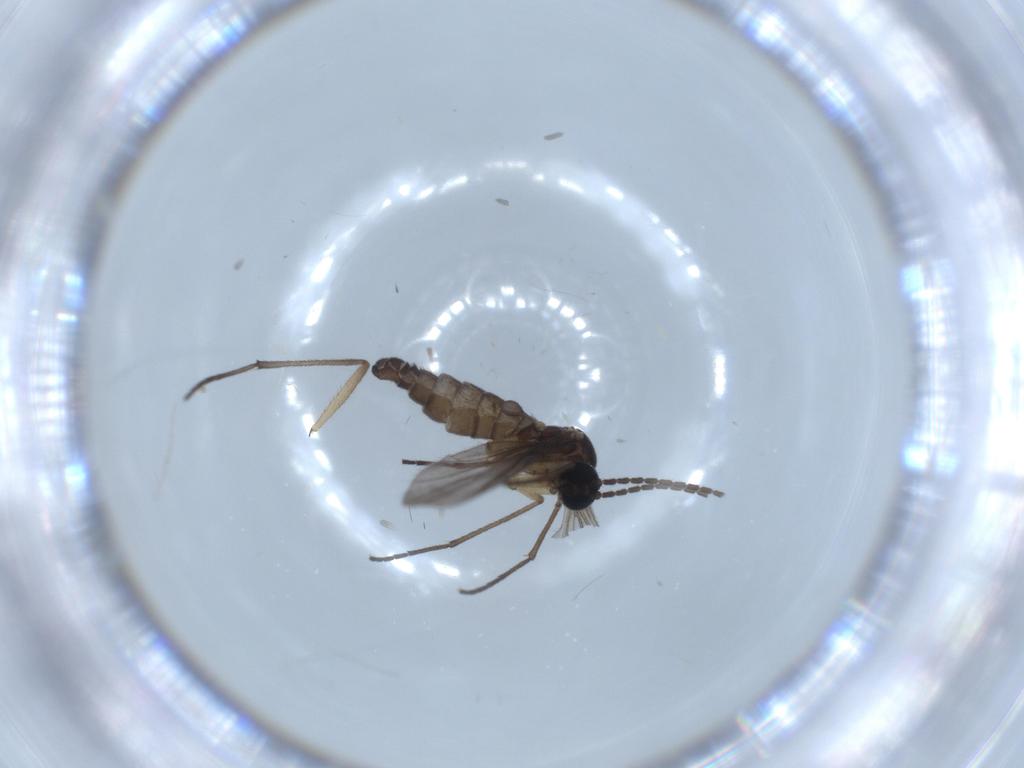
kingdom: Animalia
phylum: Arthropoda
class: Insecta
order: Diptera
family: Sciaridae
